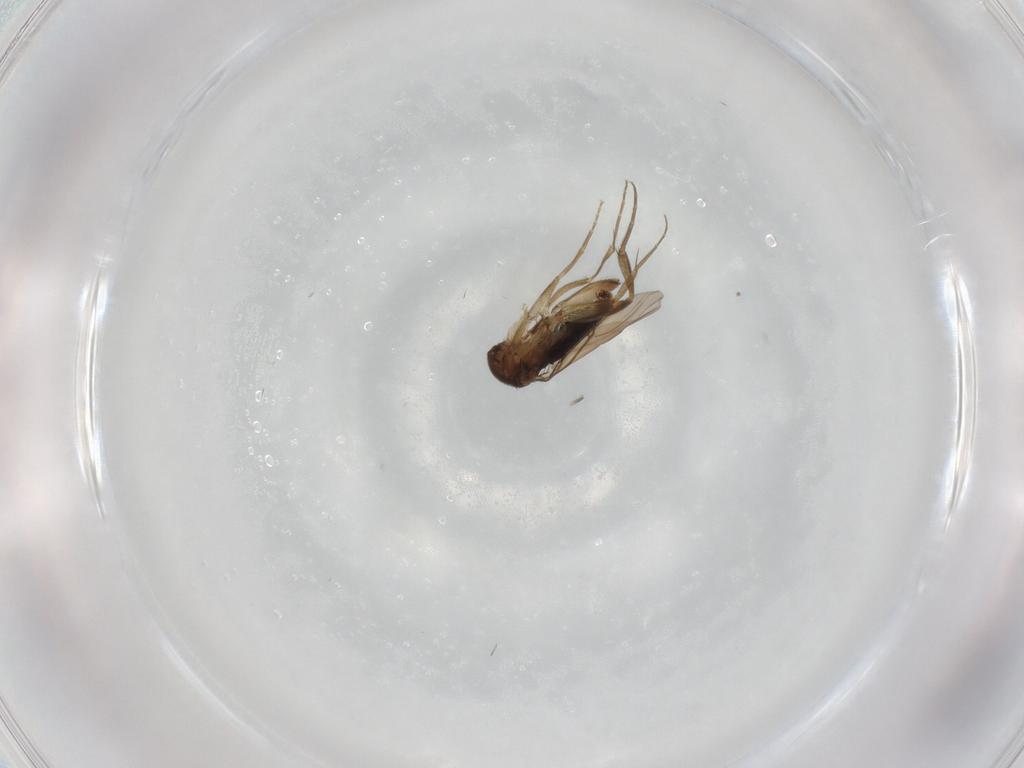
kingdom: Animalia
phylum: Arthropoda
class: Insecta
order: Diptera
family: Phoridae
